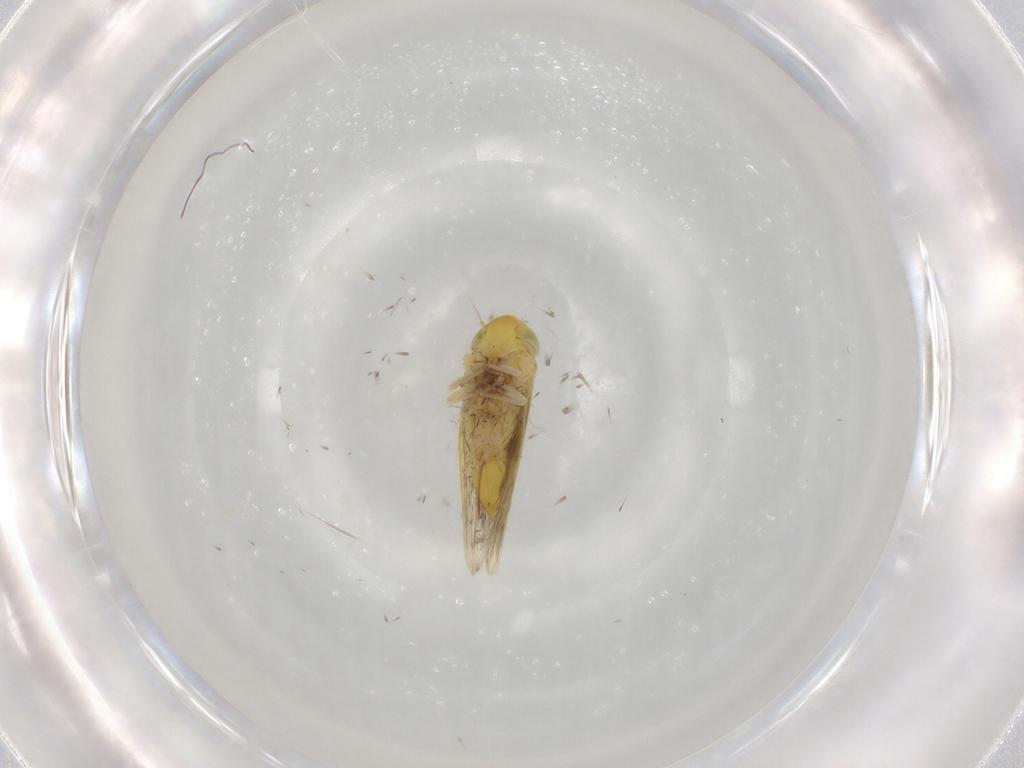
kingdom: Animalia
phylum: Arthropoda
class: Insecta
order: Hemiptera
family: Cicadellidae
